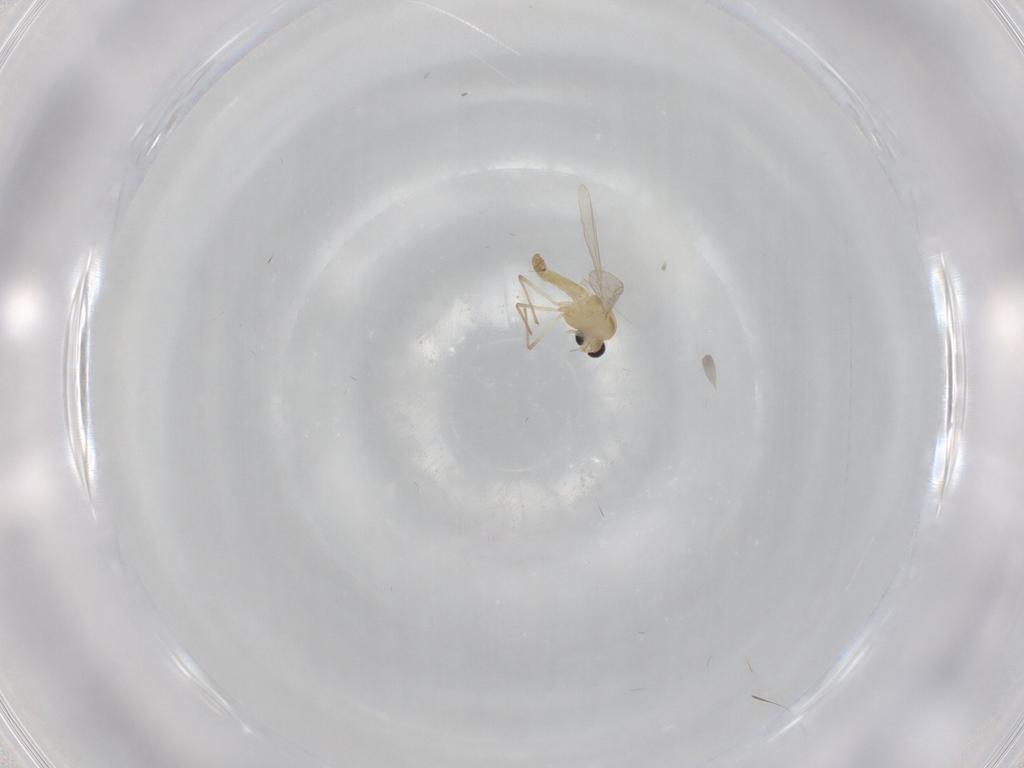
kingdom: Animalia
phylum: Arthropoda
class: Insecta
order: Diptera
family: Chironomidae
